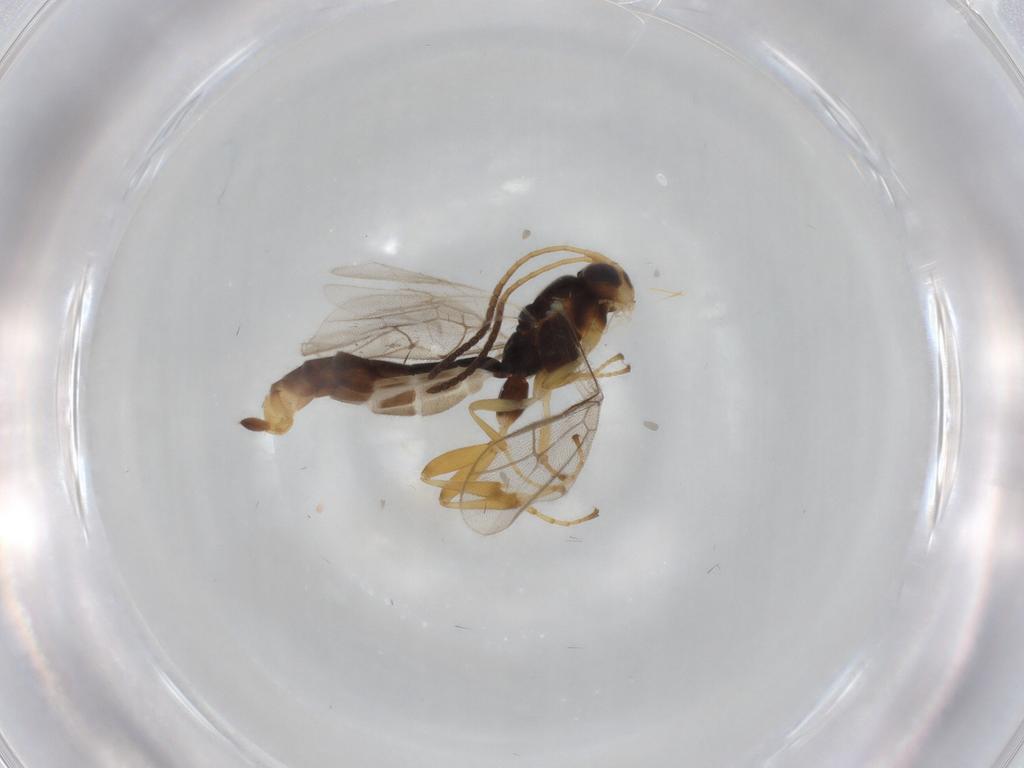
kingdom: Animalia
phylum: Arthropoda
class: Insecta
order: Hymenoptera
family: Ichneumonidae
